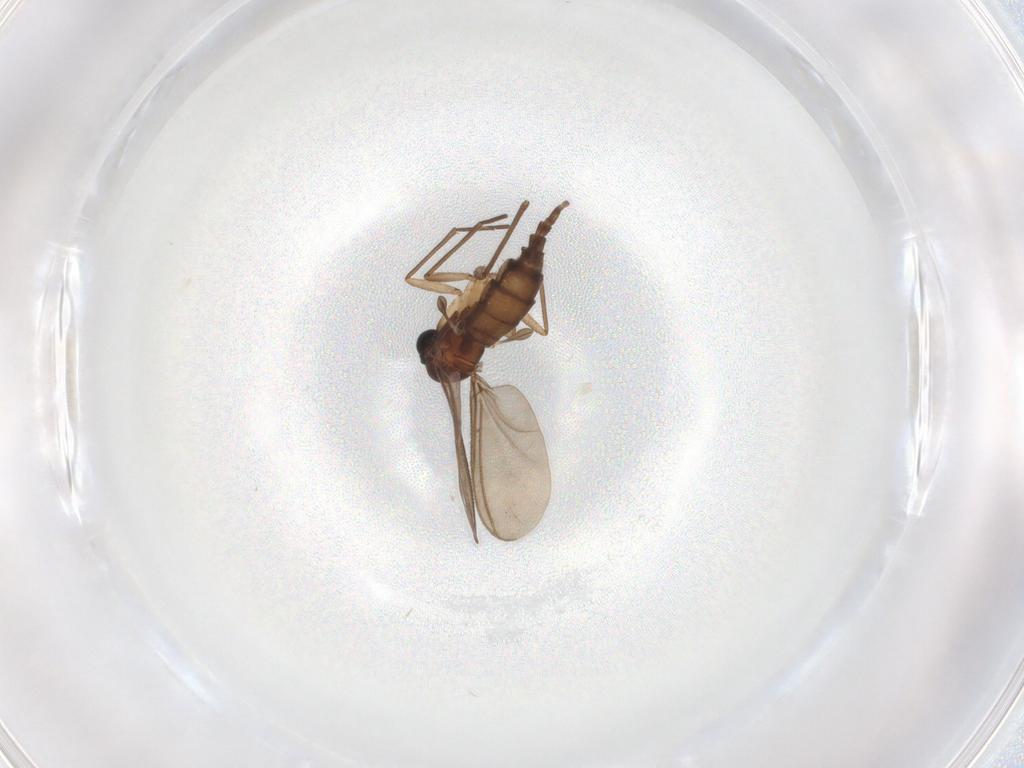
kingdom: Animalia
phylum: Arthropoda
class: Insecta
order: Diptera
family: Sciaridae
